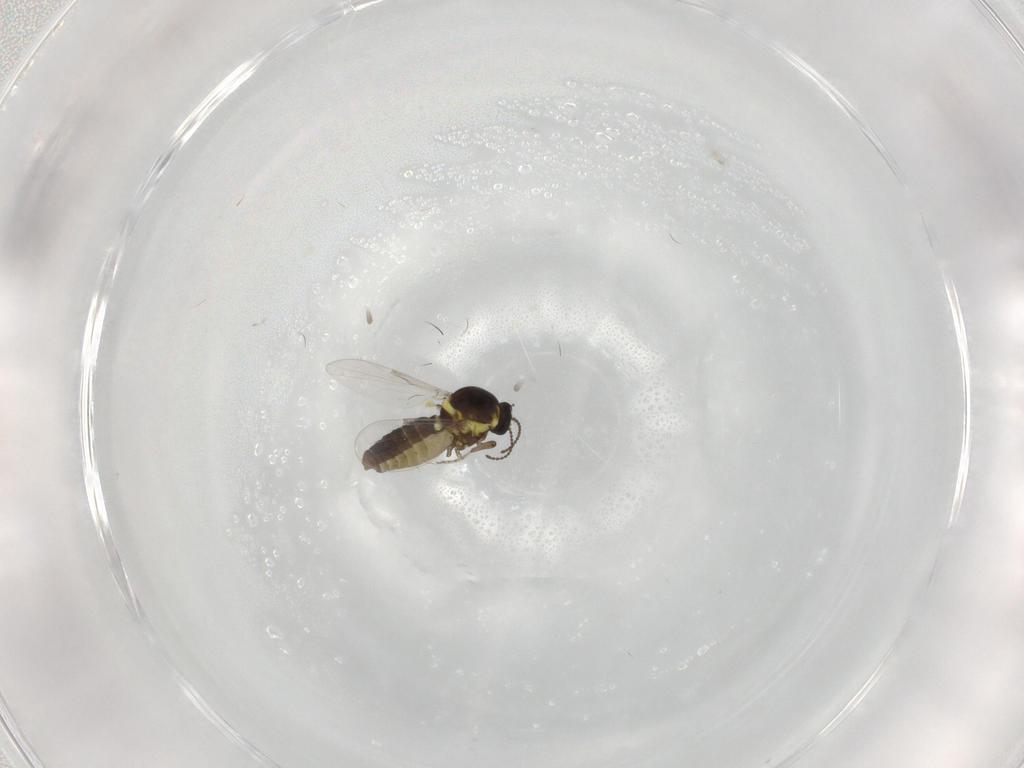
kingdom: Animalia
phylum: Arthropoda
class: Insecta
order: Diptera
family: Ceratopogonidae
